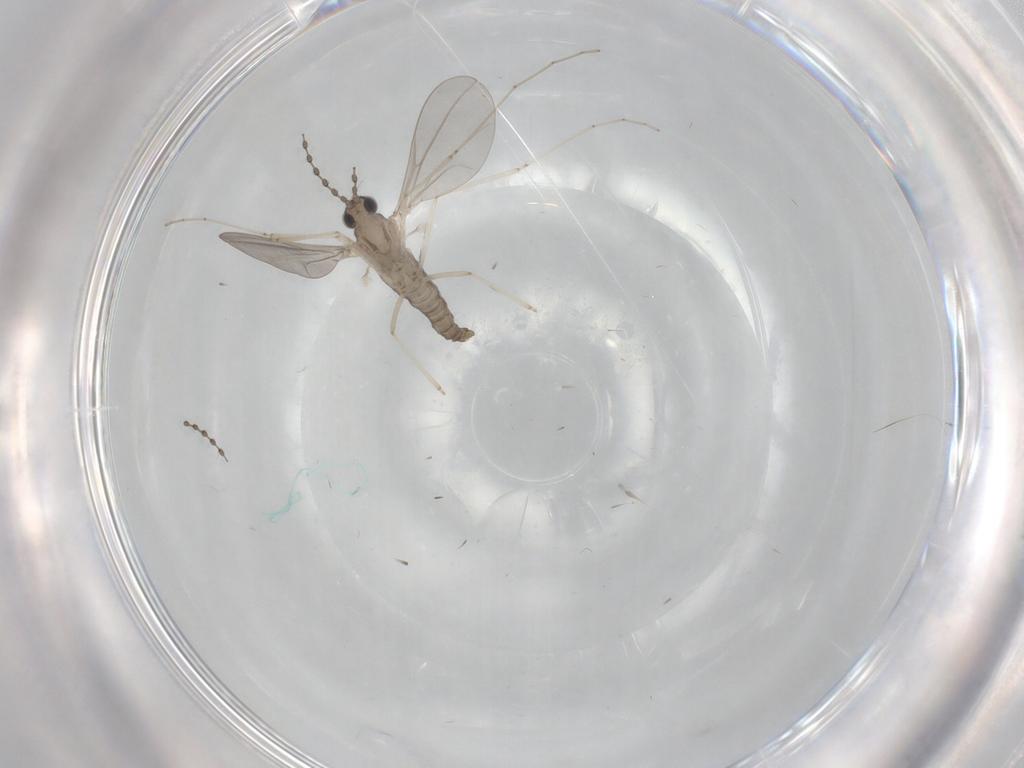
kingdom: Animalia
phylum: Arthropoda
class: Insecta
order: Diptera
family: Cecidomyiidae
